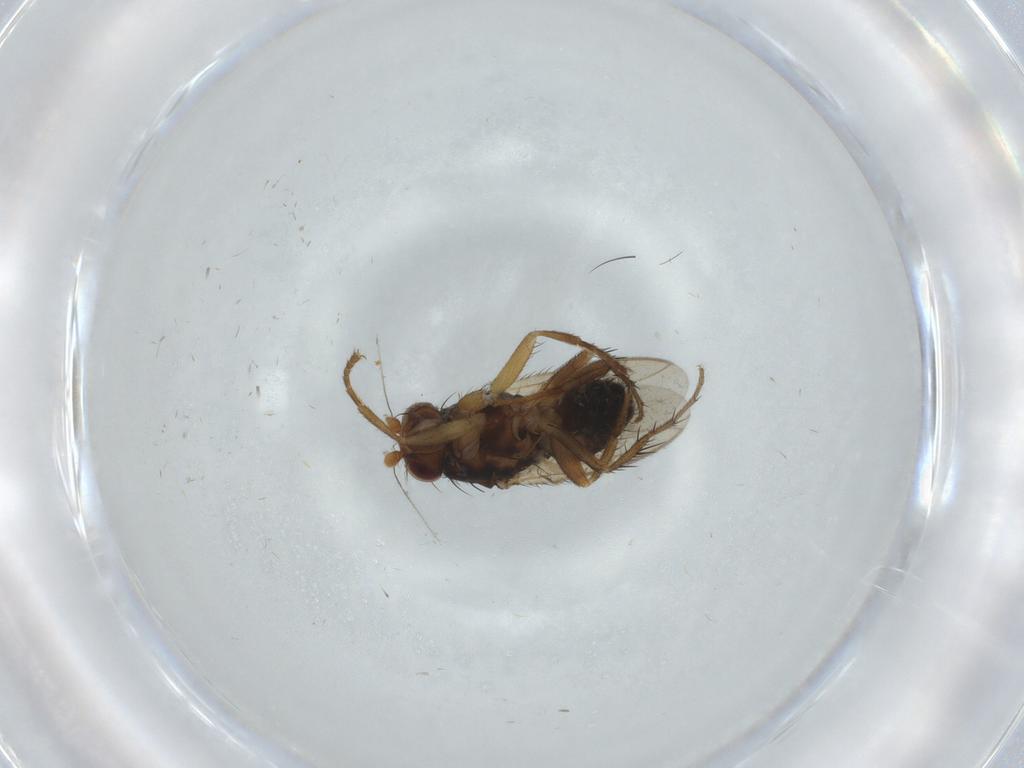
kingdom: Animalia
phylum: Arthropoda
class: Insecta
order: Diptera
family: Sphaeroceridae
